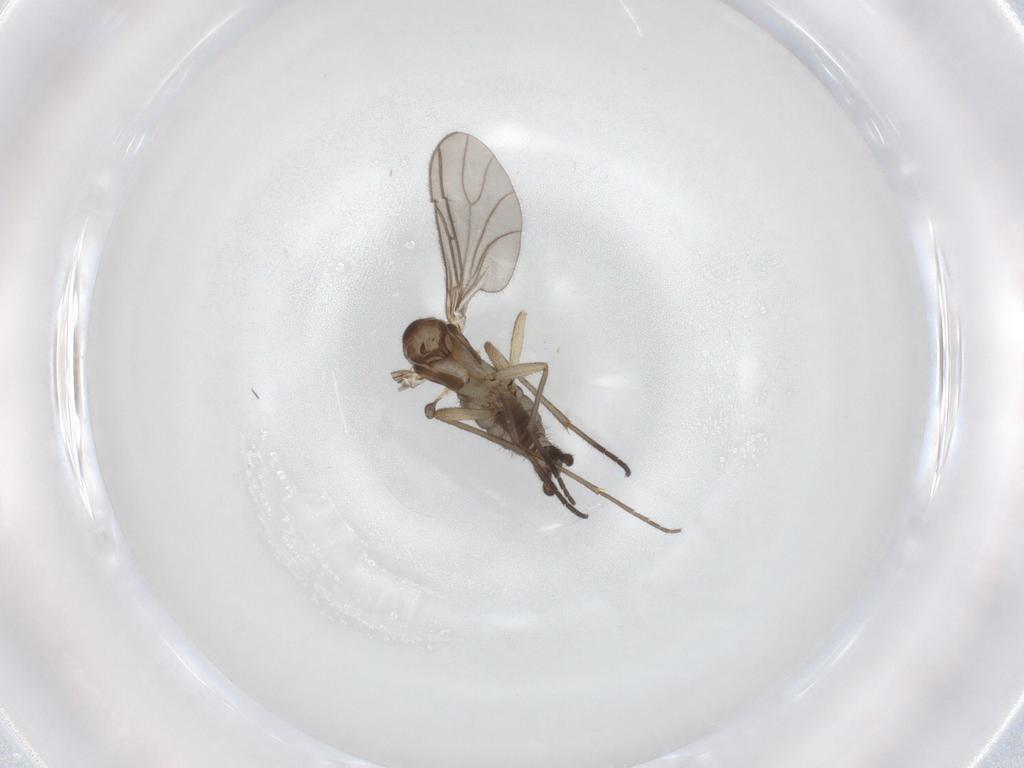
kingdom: Animalia
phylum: Arthropoda
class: Insecta
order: Diptera
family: Sciaridae
